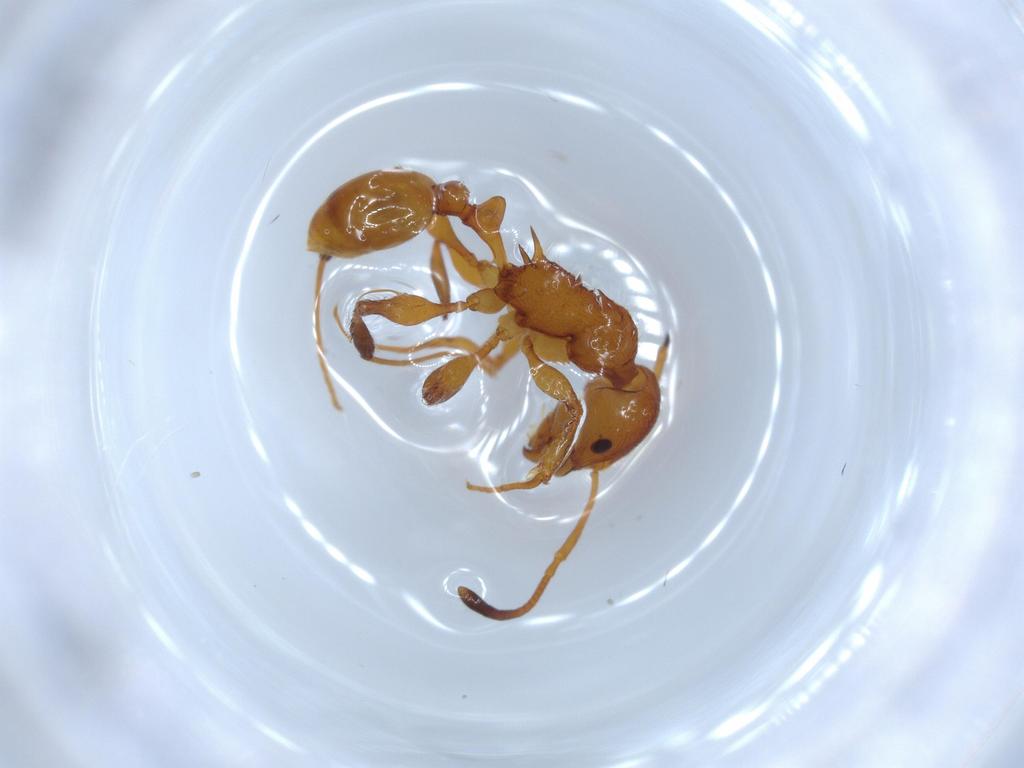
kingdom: Animalia
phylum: Arthropoda
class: Insecta
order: Hymenoptera
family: Formicidae
